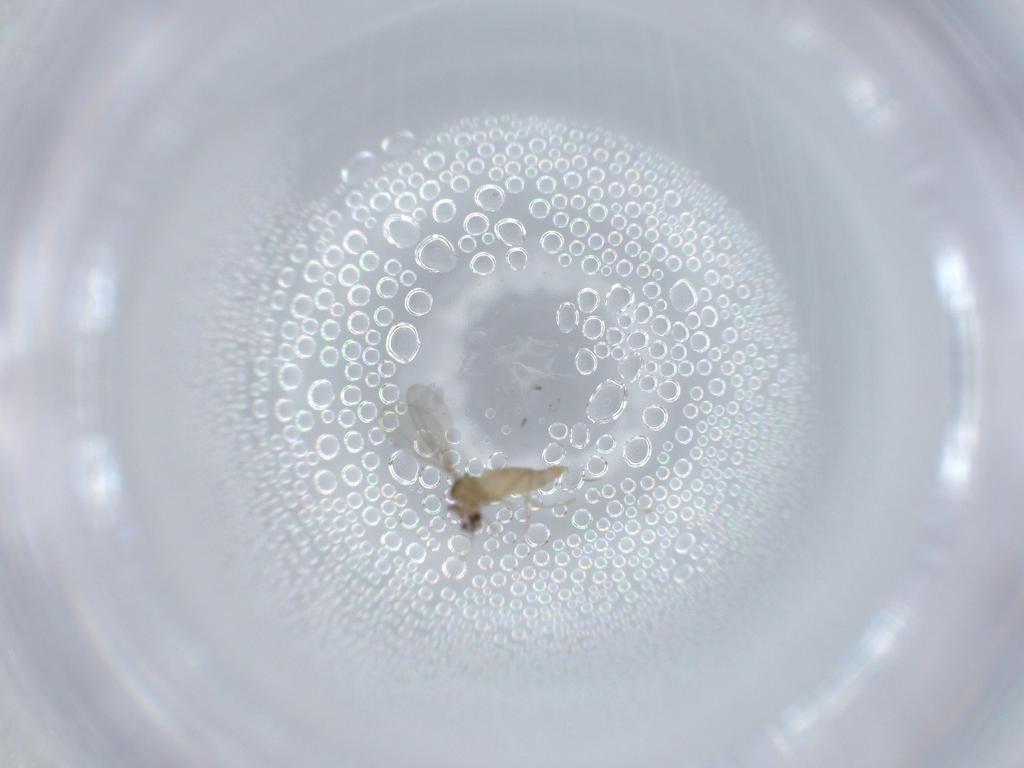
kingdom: Animalia
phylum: Arthropoda
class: Insecta
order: Diptera
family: Cecidomyiidae
